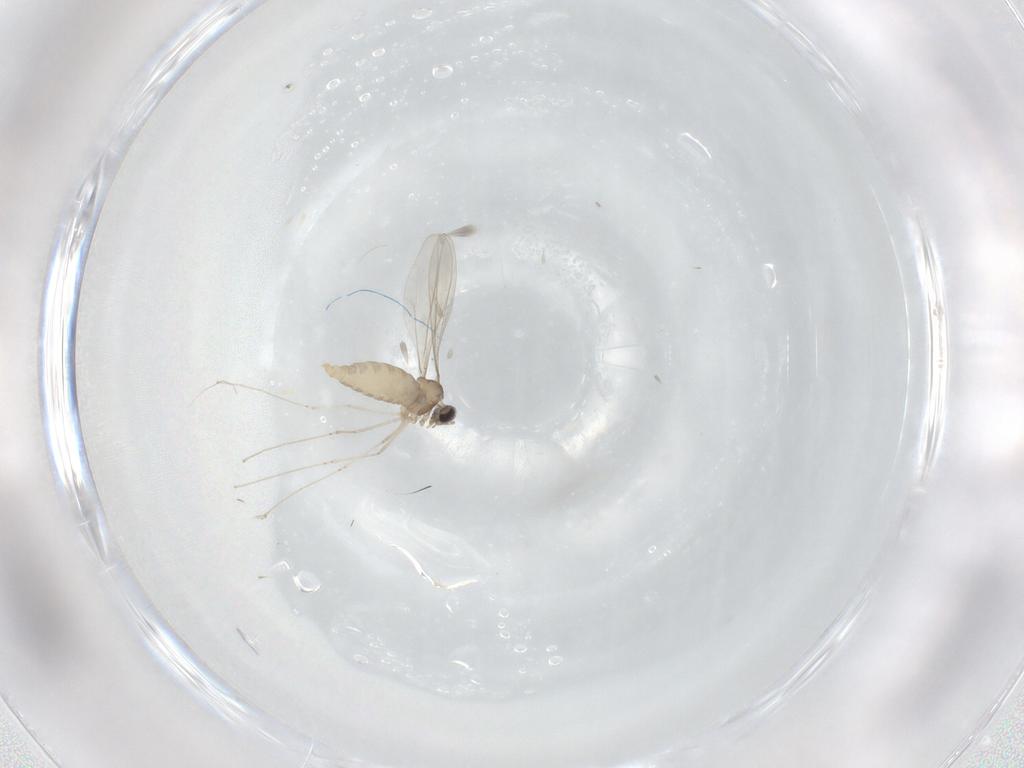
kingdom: Animalia
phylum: Arthropoda
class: Insecta
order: Diptera
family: Cecidomyiidae
